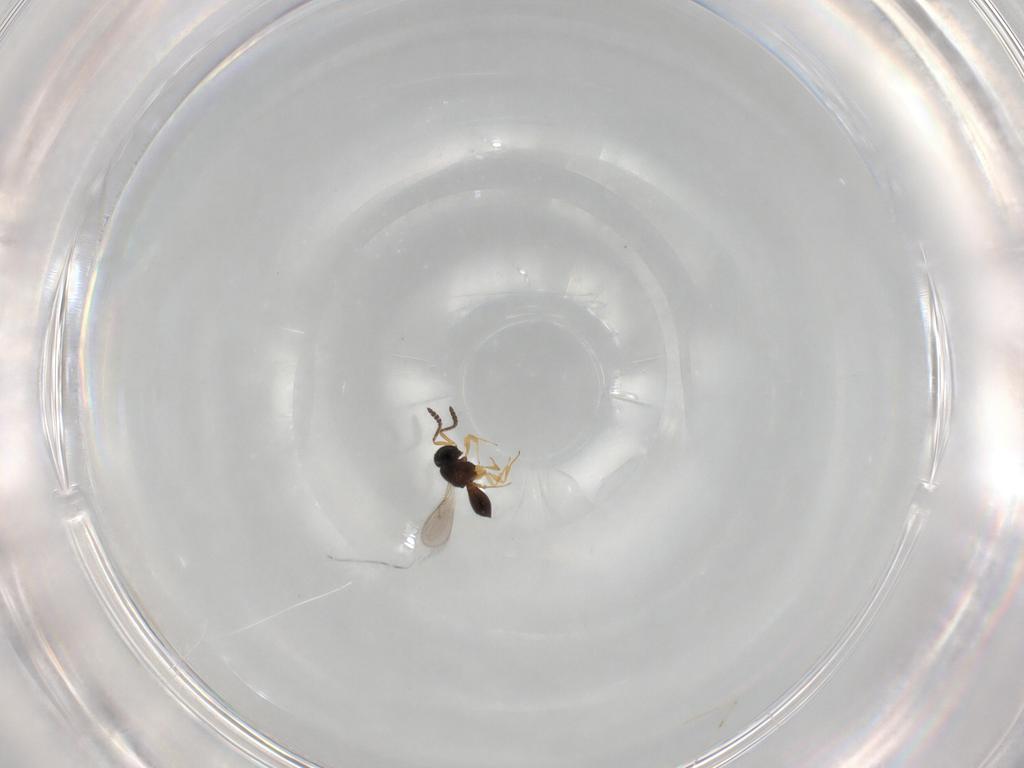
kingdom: Animalia
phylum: Arthropoda
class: Insecta
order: Hymenoptera
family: Scelionidae
